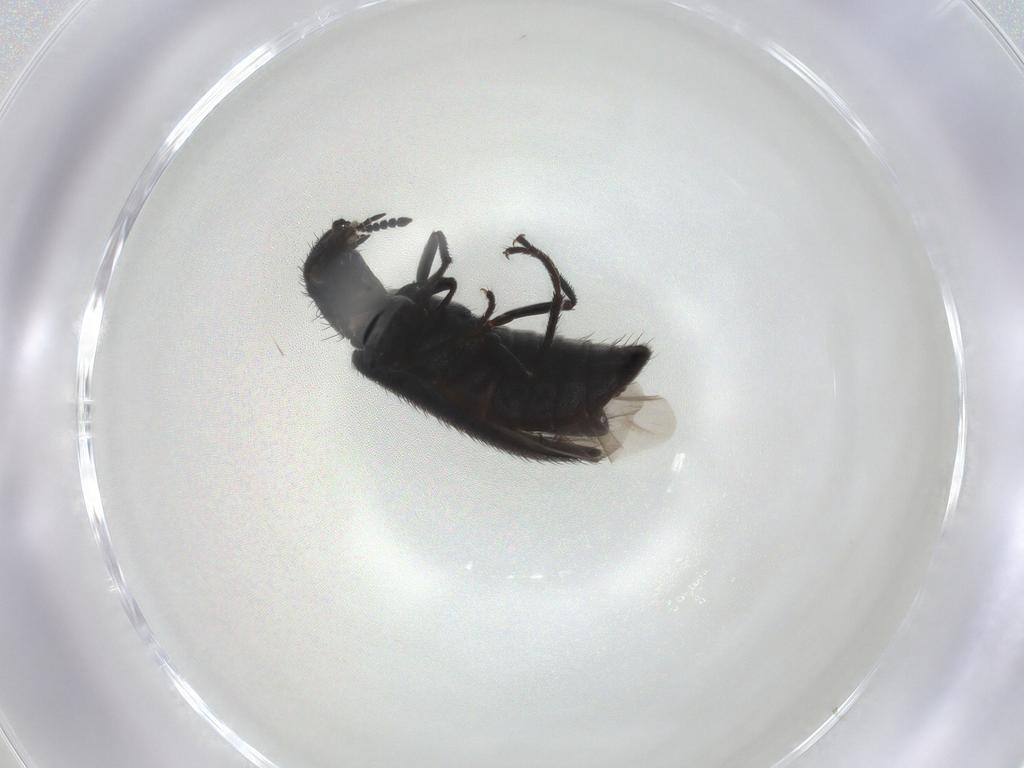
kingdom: Animalia
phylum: Arthropoda
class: Insecta
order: Coleoptera
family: Melyridae
